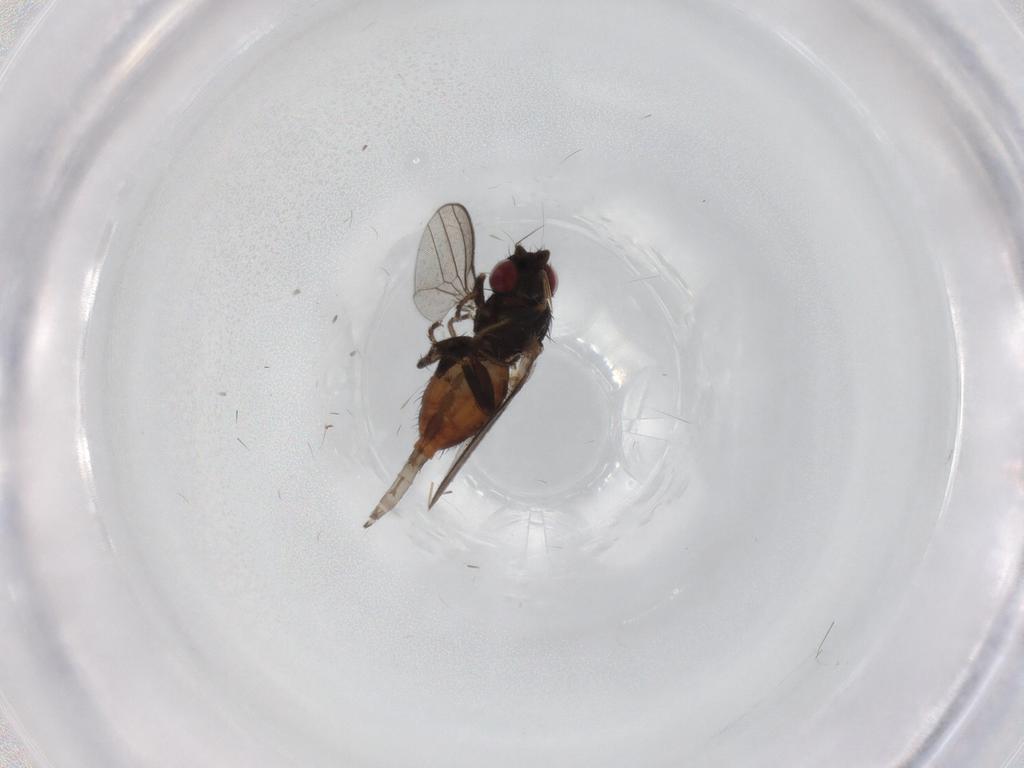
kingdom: Animalia
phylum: Arthropoda
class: Insecta
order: Diptera
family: Milichiidae
